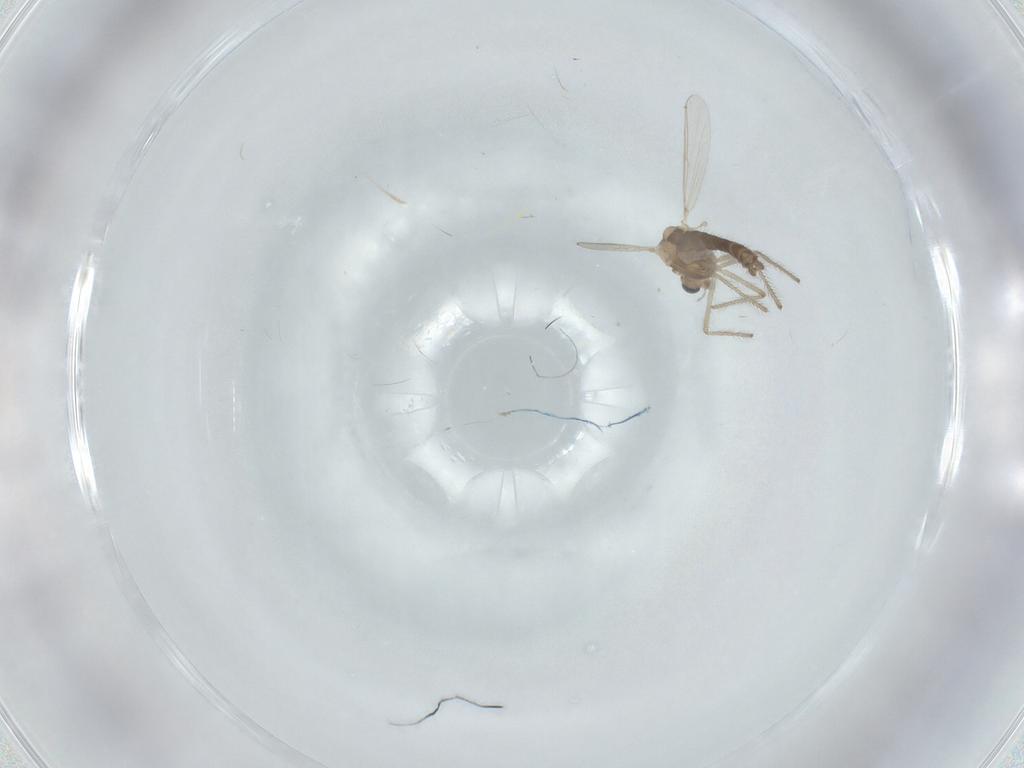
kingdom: Animalia
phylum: Arthropoda
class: Insecta
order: Diptera
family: Chironomidae
